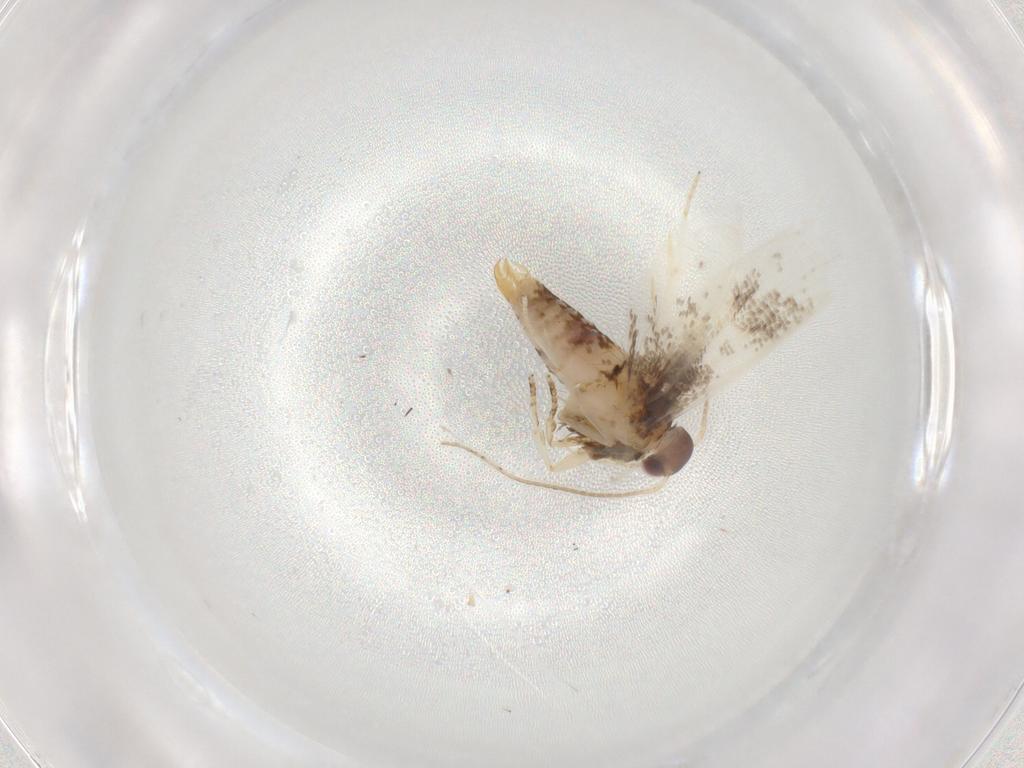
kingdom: Animalia
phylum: Arthropoda
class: Insecta
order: Lepidoptera
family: Oecophoridae
